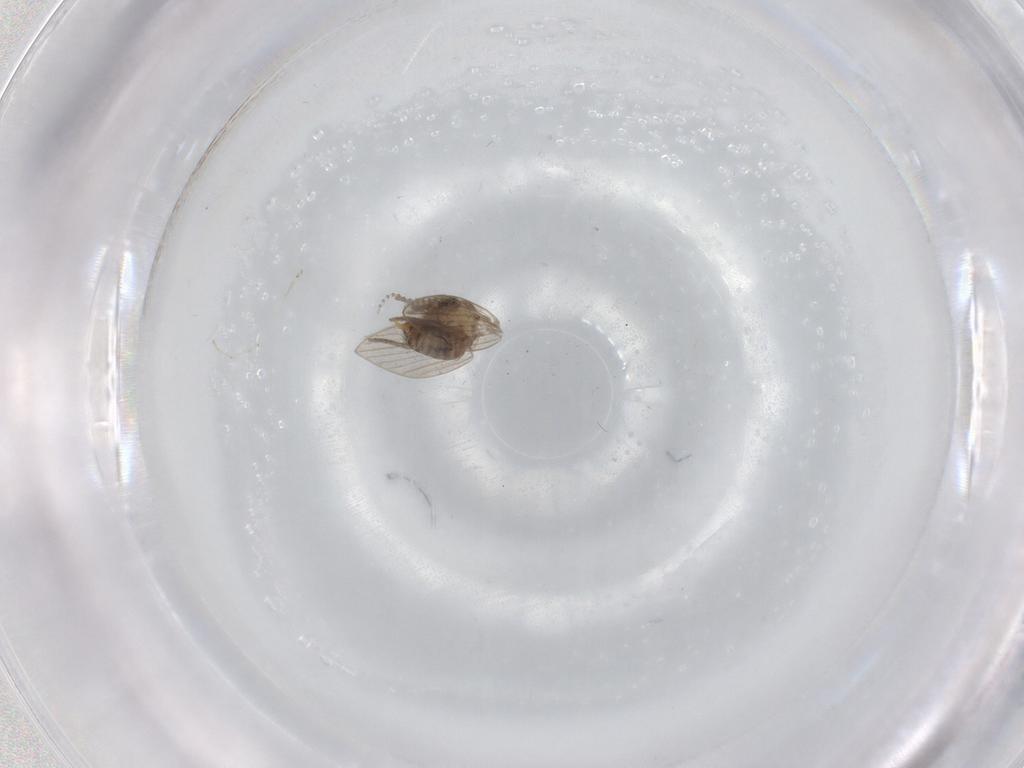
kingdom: Animalia
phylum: Arthropoda
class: Insecta
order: Diptera
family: Cecidomyiidae
